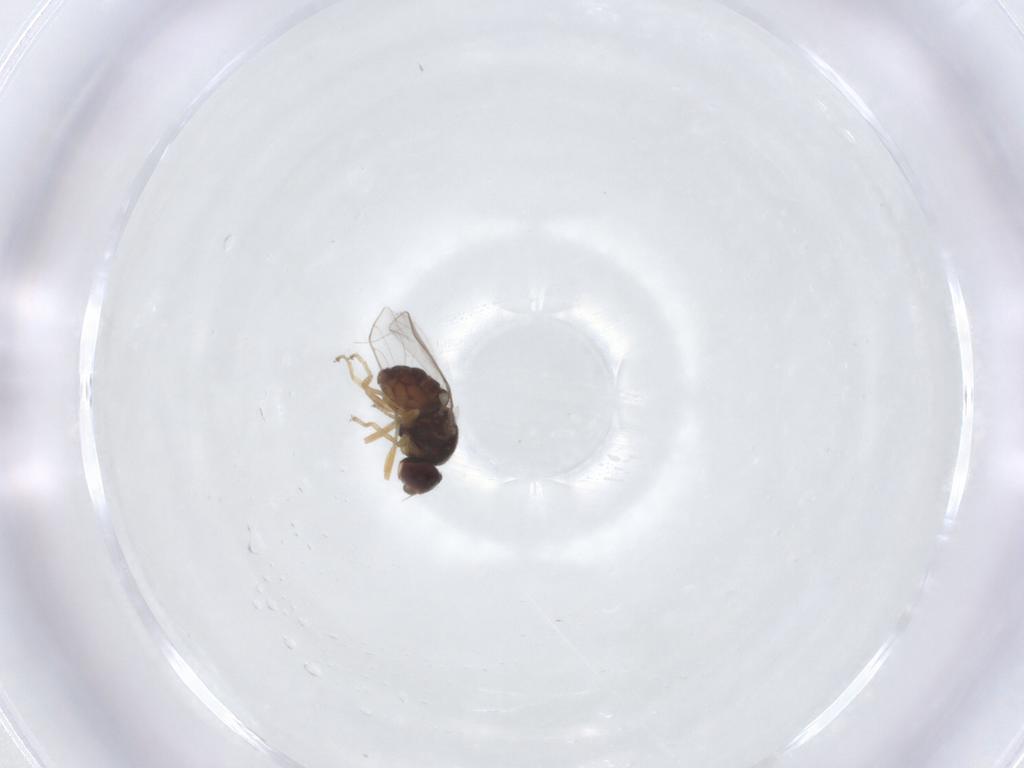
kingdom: Animalia
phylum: Arthropoda
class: Insecta
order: Diptera
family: Chloropidae
